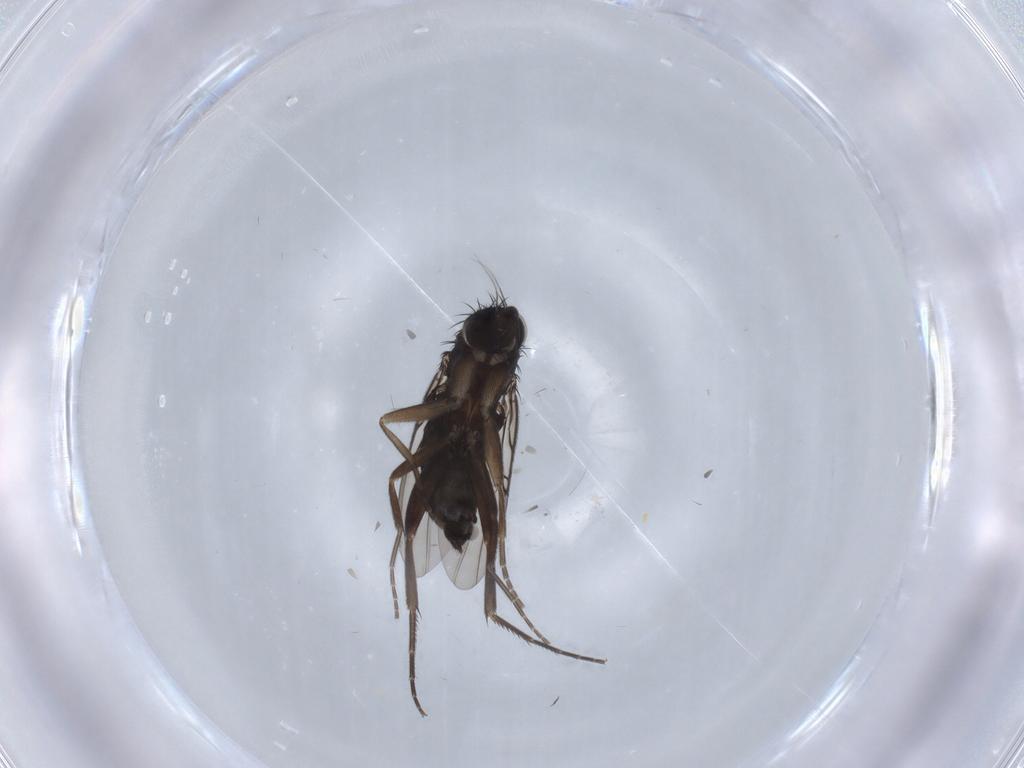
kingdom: Animalia
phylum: Arthropoda
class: Insecta
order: Diptera
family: Phoridae
